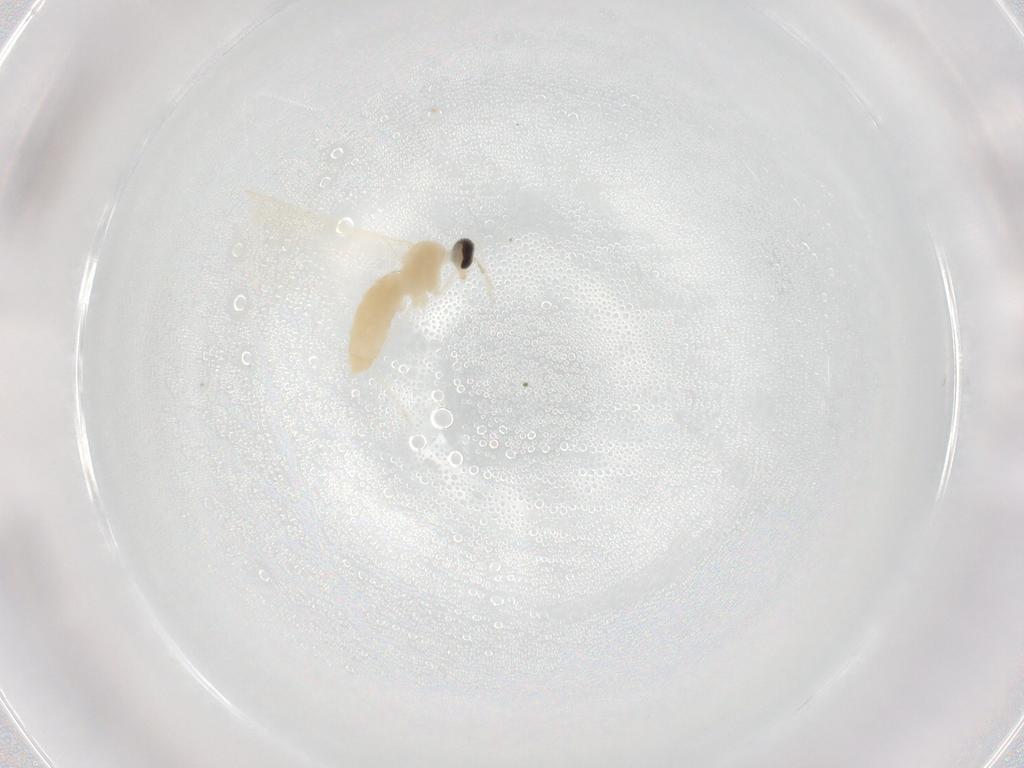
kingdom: Animalia
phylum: Arthropoda
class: Insecta
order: Diptera
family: Cecidomyiidae
